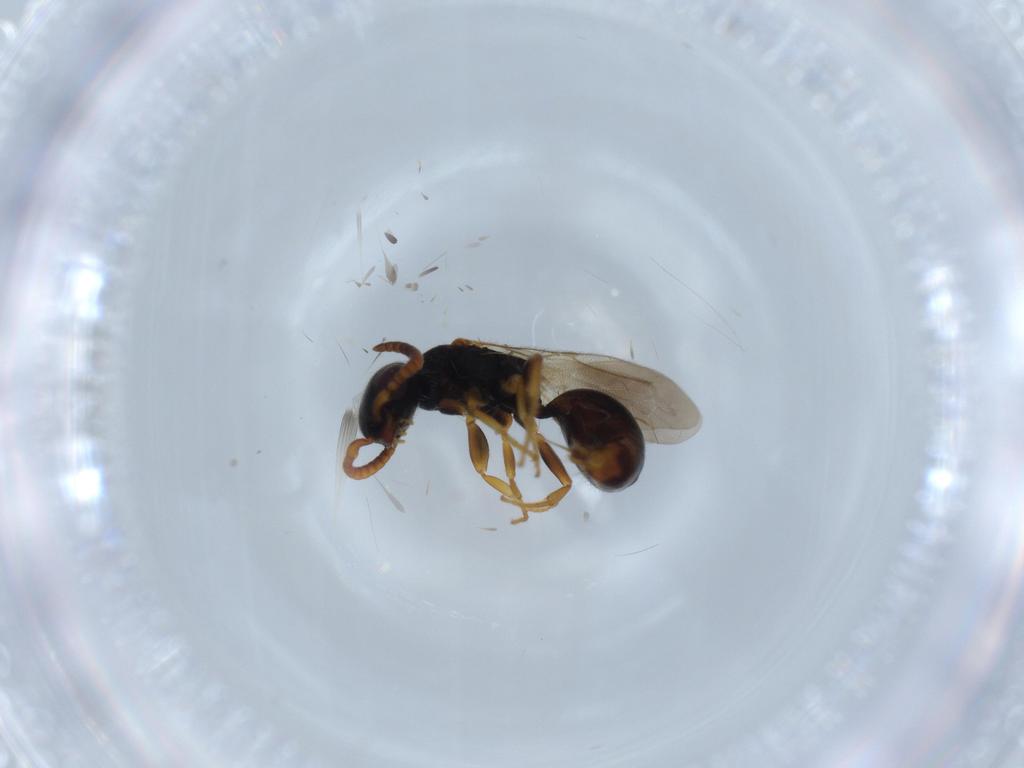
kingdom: Animalia
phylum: Arthropoda
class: Insecta
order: Hymenoptera
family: Bethylidae
